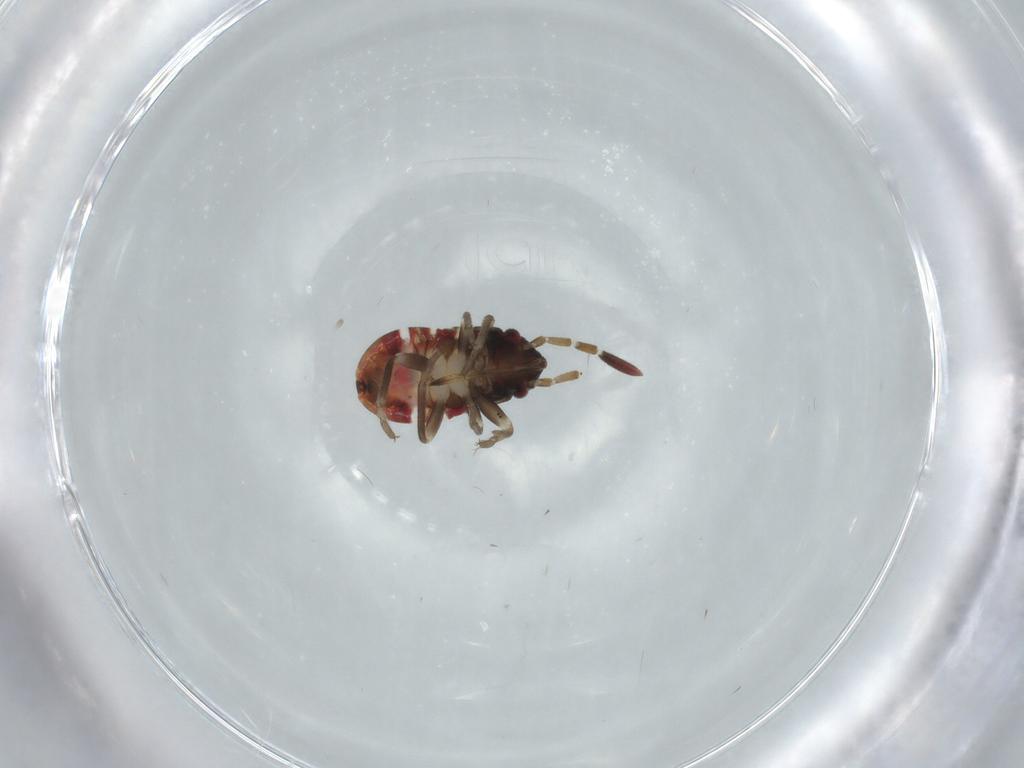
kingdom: Animalia
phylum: Arthropoda
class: Insecta
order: Hemiptera
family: Rhyparochromidae
